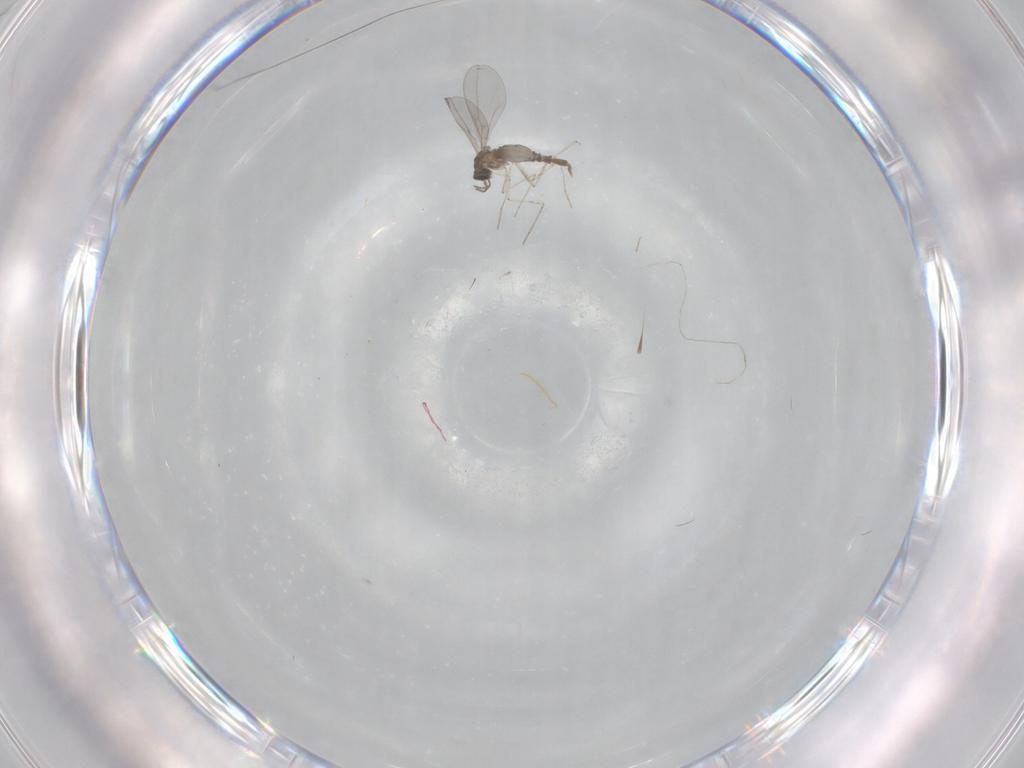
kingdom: Animalia
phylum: Arthropoda
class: Insecta
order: Diptera
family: Cecidomyiidae
